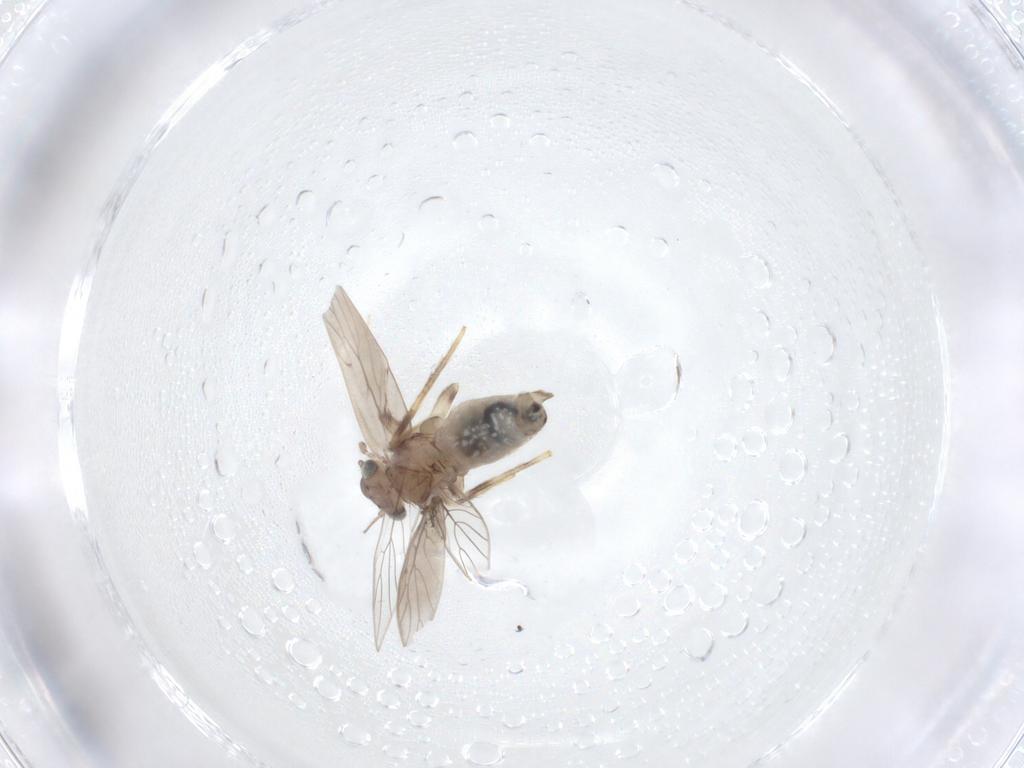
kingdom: Animalia
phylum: Arthropoda
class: Insecta
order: Psocodea
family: Lepidopsocidae
